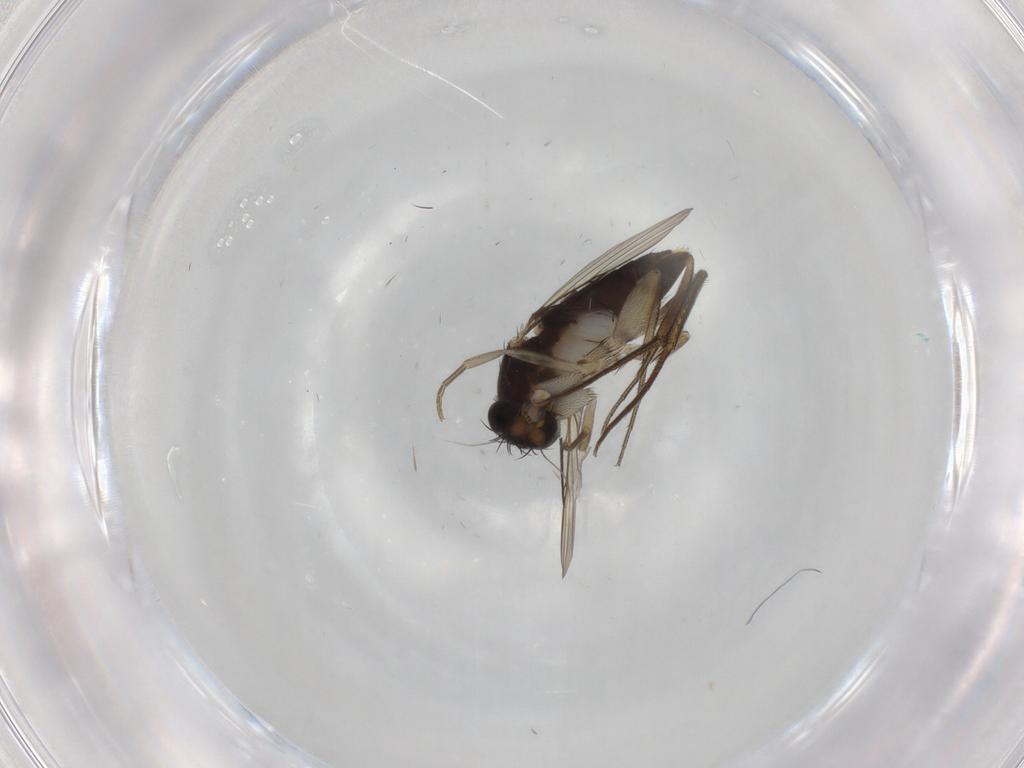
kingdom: Animalia
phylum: Arthropoda
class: Insecta
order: Diptera
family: Phoridae
